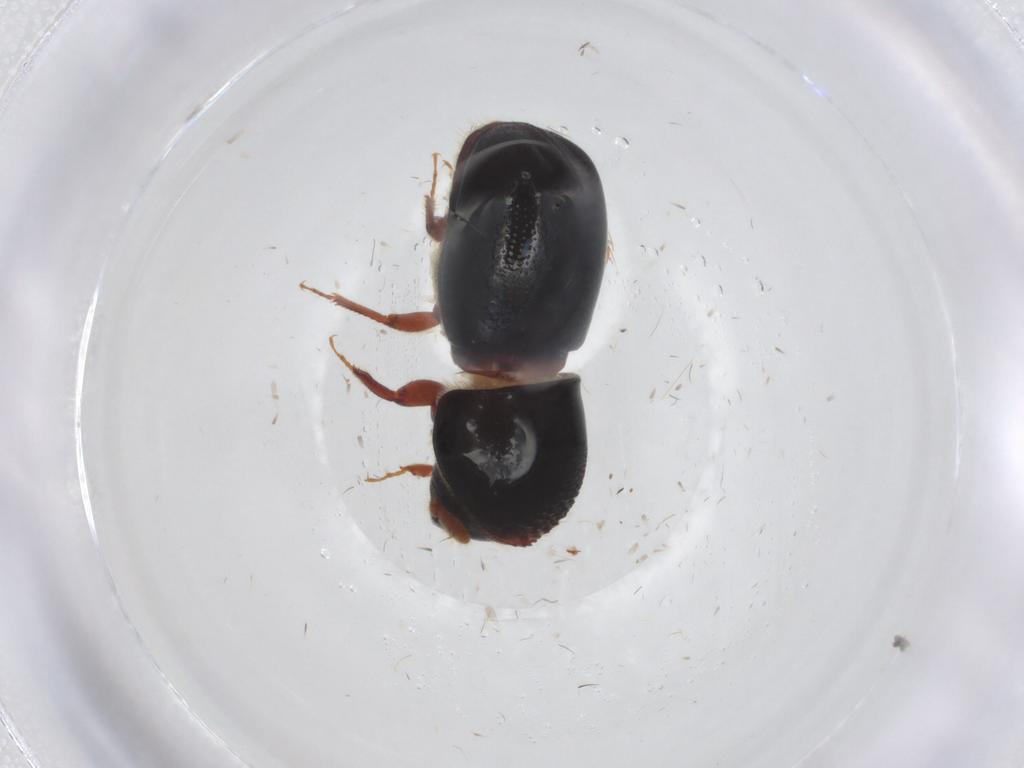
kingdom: Animalia
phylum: Arthropoda
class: Insecta
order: Coleoptera
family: Curculionidae
